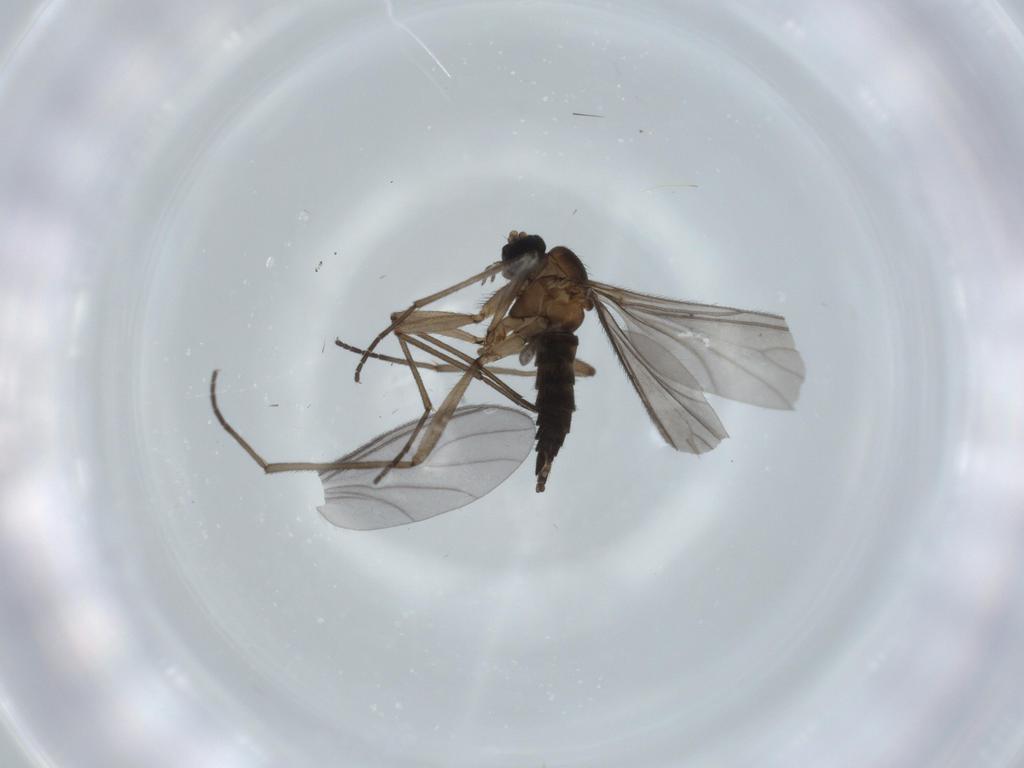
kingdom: Animalia
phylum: Arthropoda
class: Insecta
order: Diptera
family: Sciaridae
